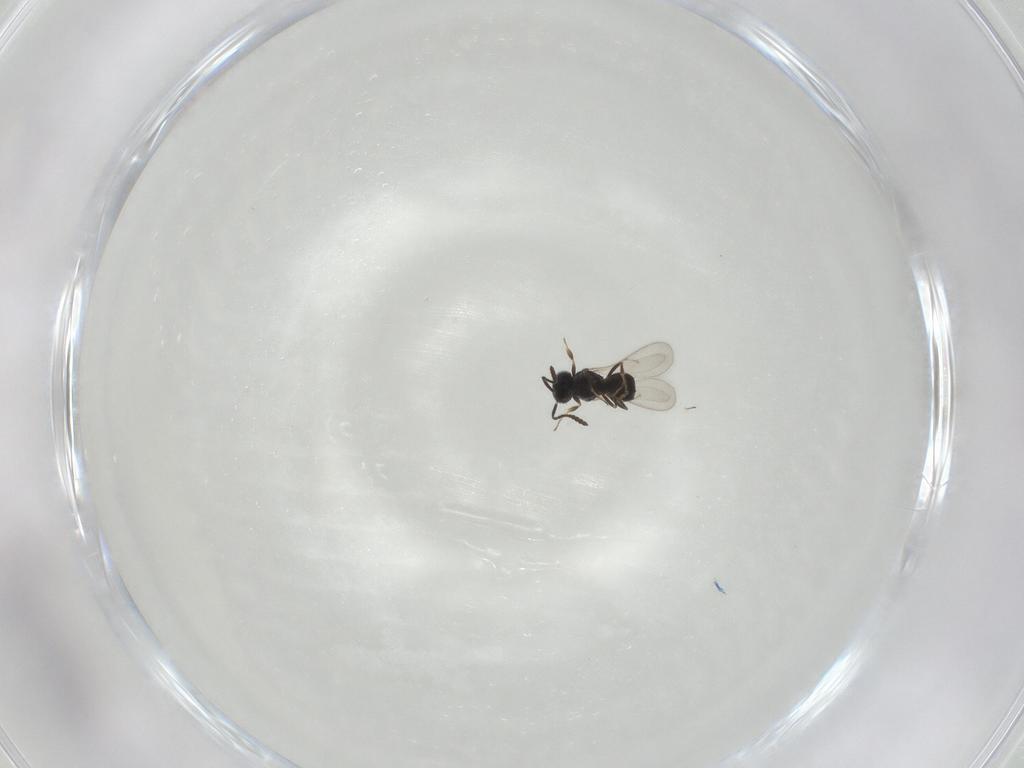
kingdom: Animalia
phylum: Arthropoda
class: Insecta
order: Hymenoptera
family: Scelionidae
